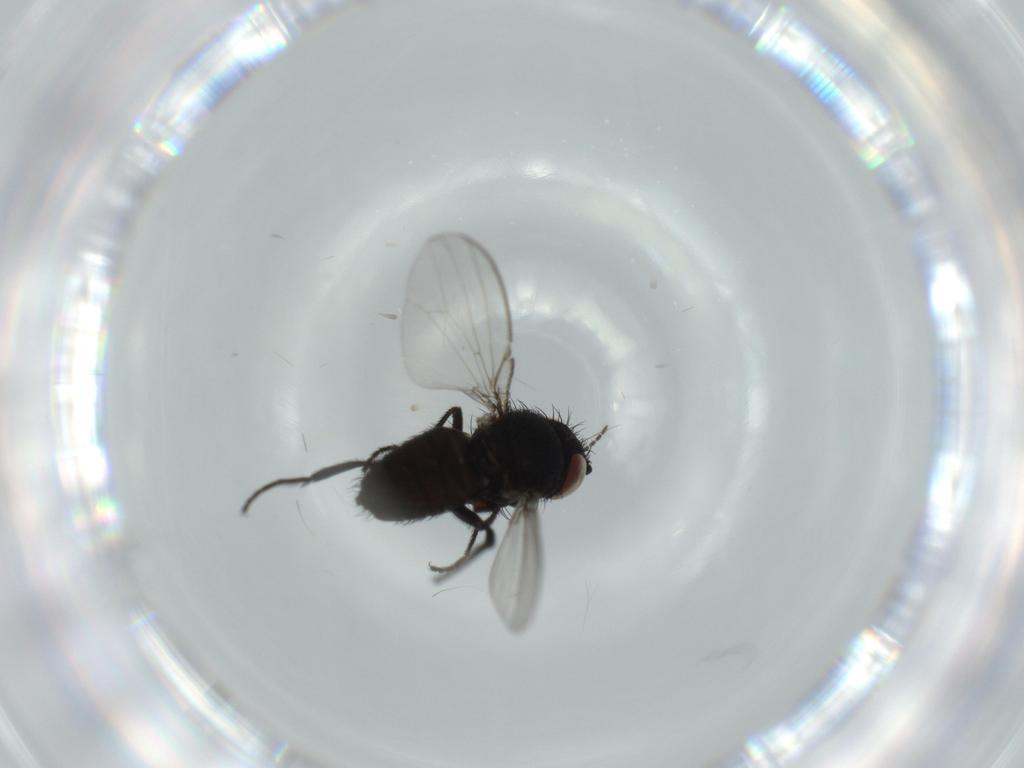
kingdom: Animalia
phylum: Arthropoda
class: Insecta
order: Diptera
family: Milichiidae
